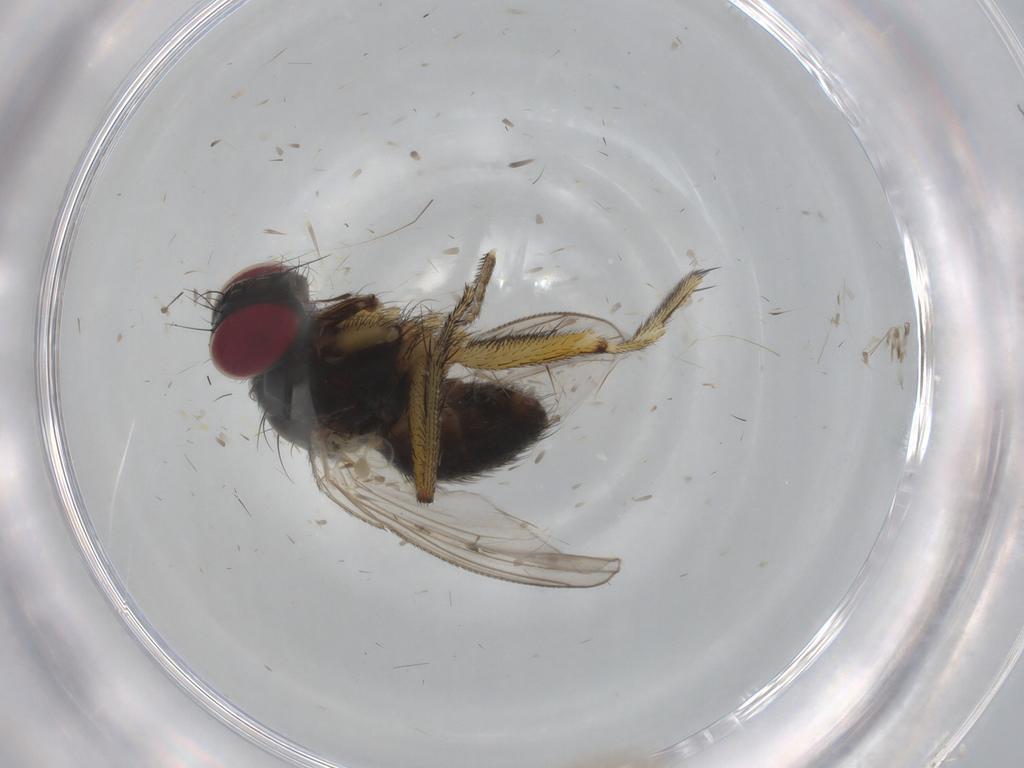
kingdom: Animalia
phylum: Arthropoda
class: Insecta
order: Diptera
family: Muscidae
